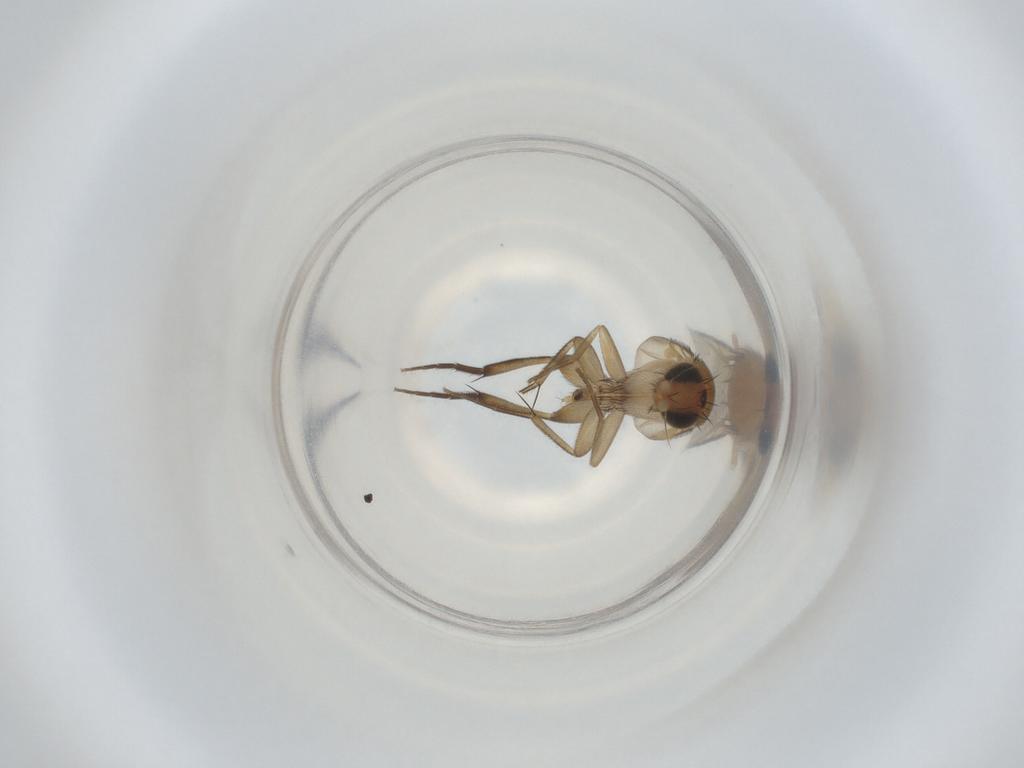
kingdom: Animalia
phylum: Arthropoda
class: Insecta
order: Diptera
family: Phoridae
